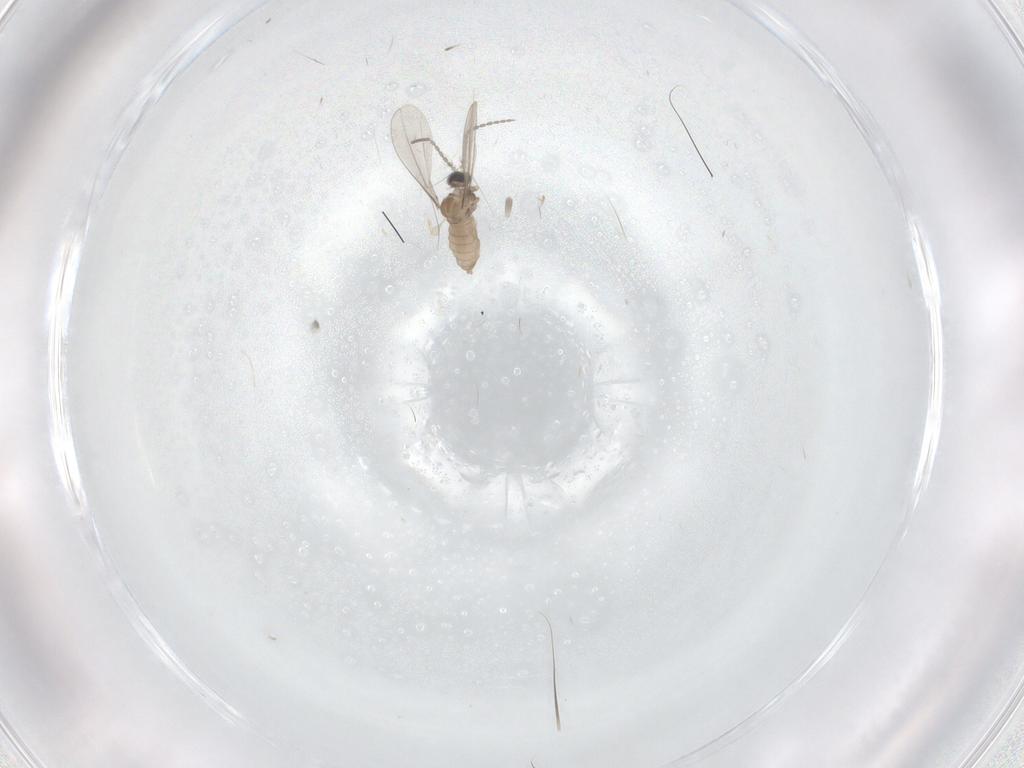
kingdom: Animalia
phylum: Arthropoda
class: Insecta
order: Diptera
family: Cecidomyiidae
